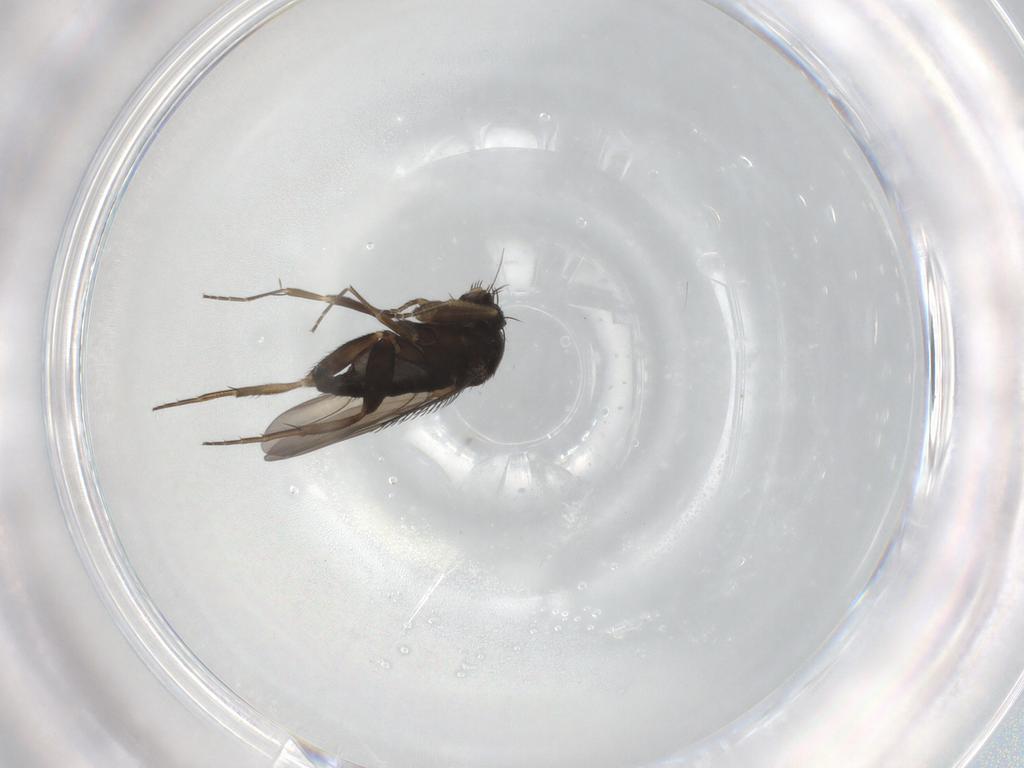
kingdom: Animalia
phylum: Arthropoda
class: Insecta
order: Diptera
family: Phoridae
